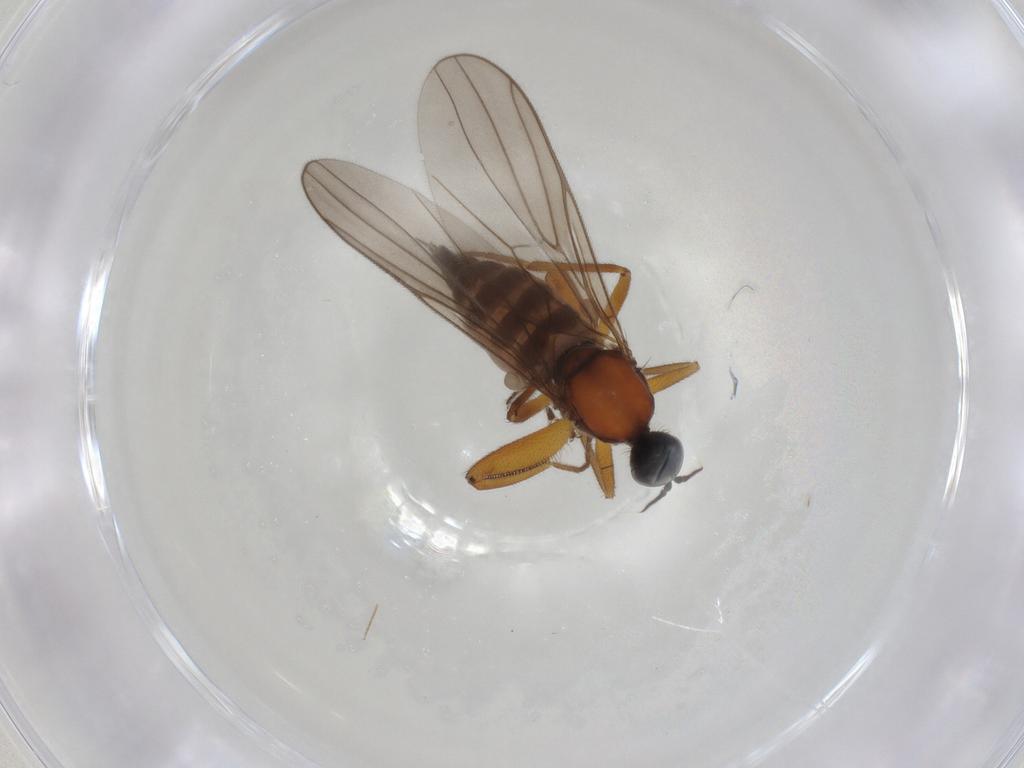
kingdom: Animalia
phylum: Arthropoda
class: Insecta
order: Diptera
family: Hybotidae
